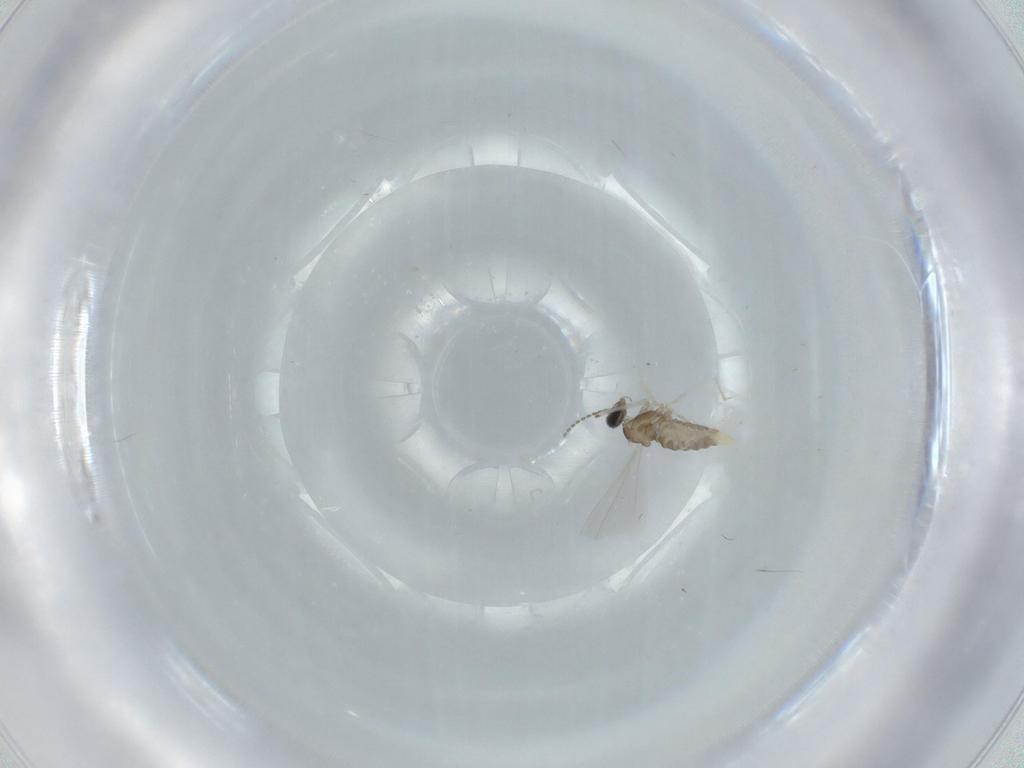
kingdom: Animalia
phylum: Arthropoda
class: Insecta
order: Diptera
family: Cecidomyiidae
